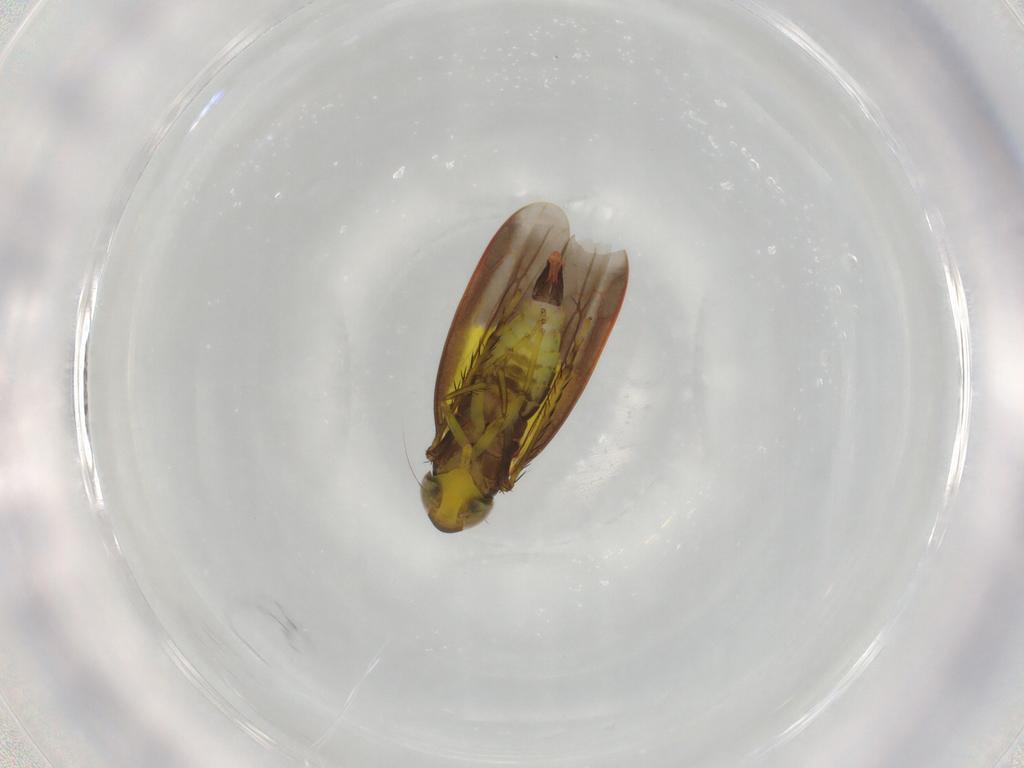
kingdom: Animalia
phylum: Arthropoda
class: Insecta
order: Hemiptera
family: Cicadellidae
